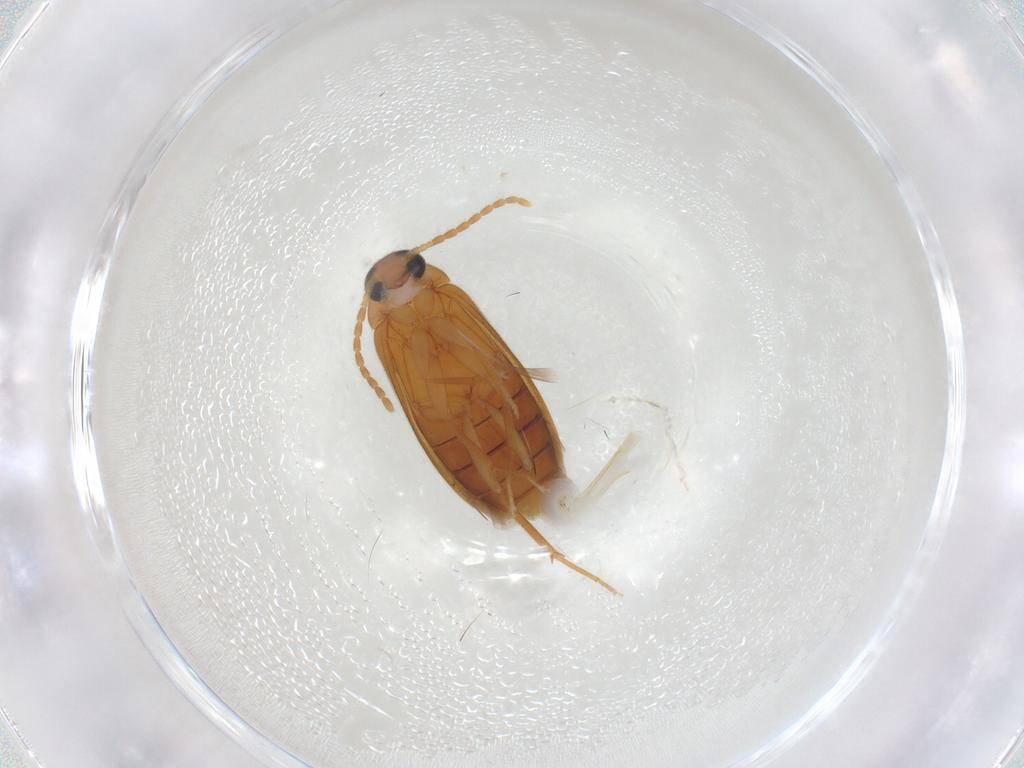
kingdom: Animalia
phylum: Arthropoda
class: Insecta
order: Coleoptera
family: Scraptiidae
